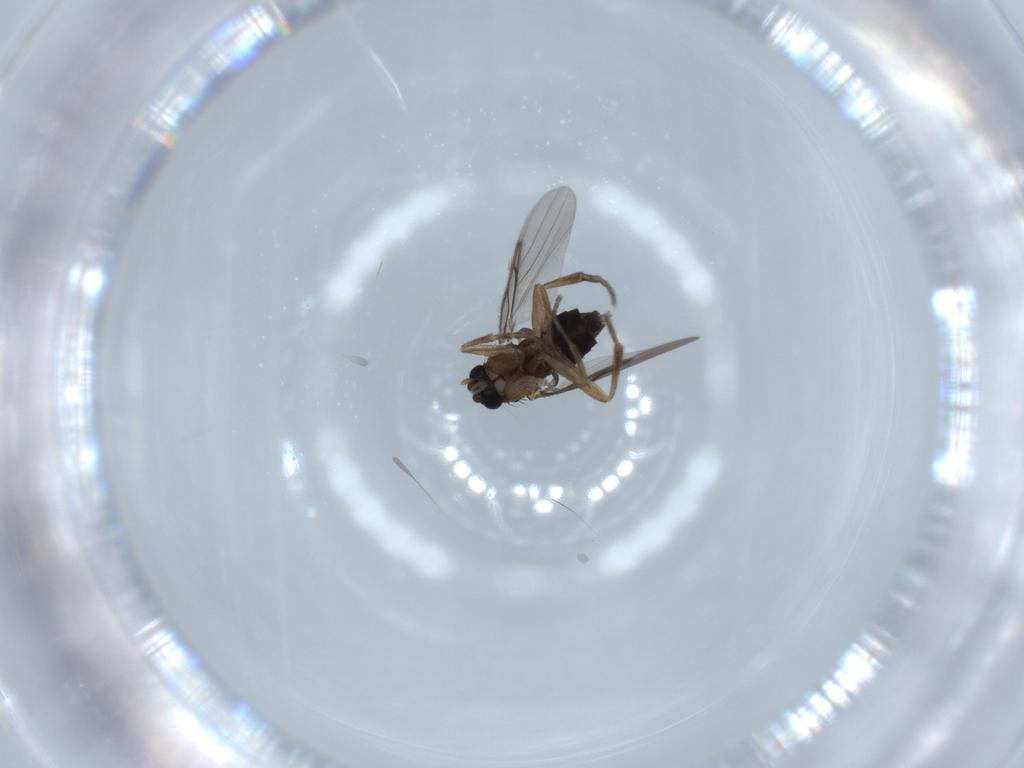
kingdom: Animalia
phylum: Arthropoda
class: Insecta
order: Diptera
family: Phoridae
